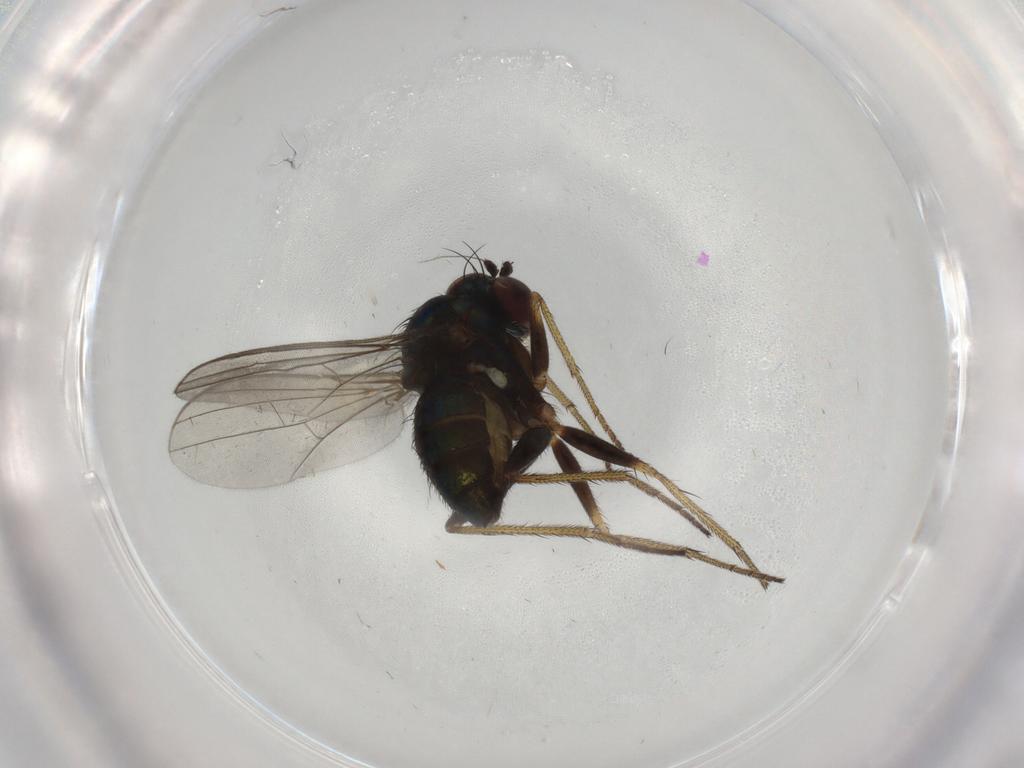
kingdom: Animalia
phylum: Arthropoda
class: Insecta
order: Diptera
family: Dolichopodidae
